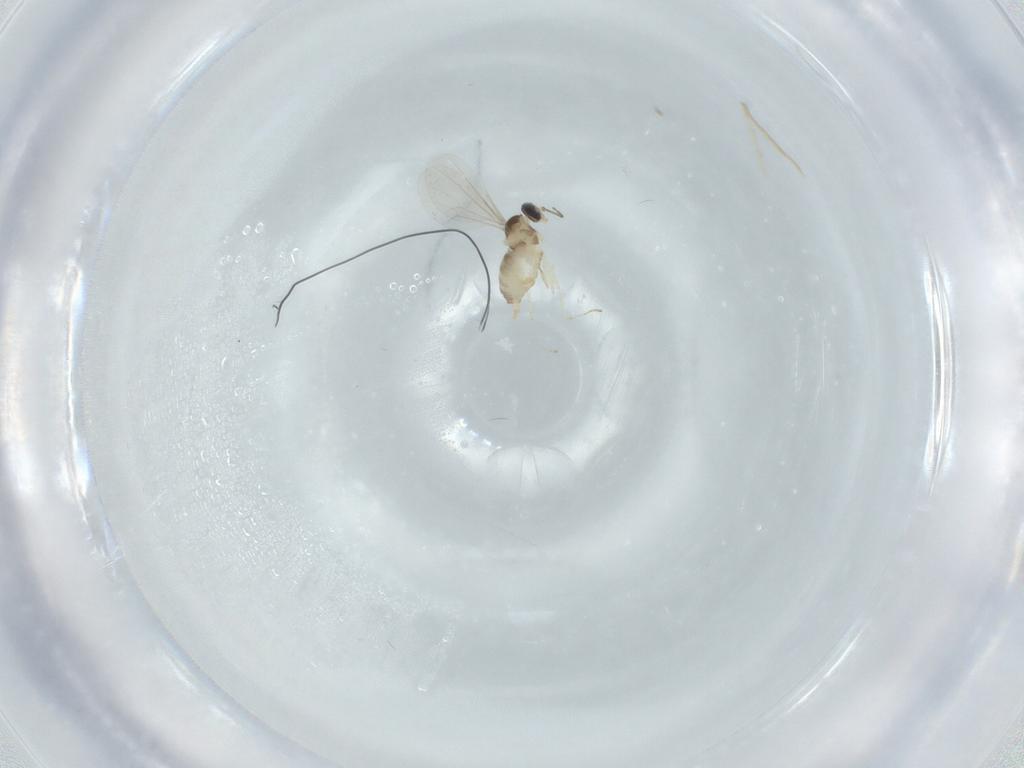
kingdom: Animalia
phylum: Arthropoda
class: Insecta
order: Diptera
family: Cecidomyiidae
